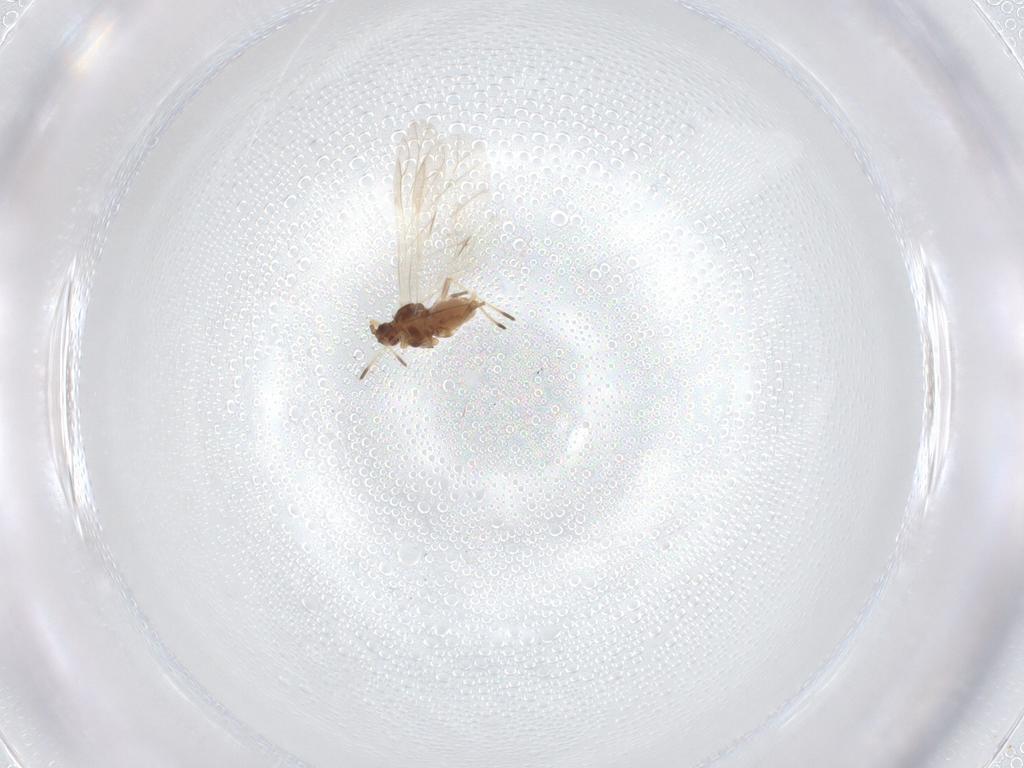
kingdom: Animalia
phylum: Arthropoda
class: Insecta
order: Hemiptera
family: Aphididae
